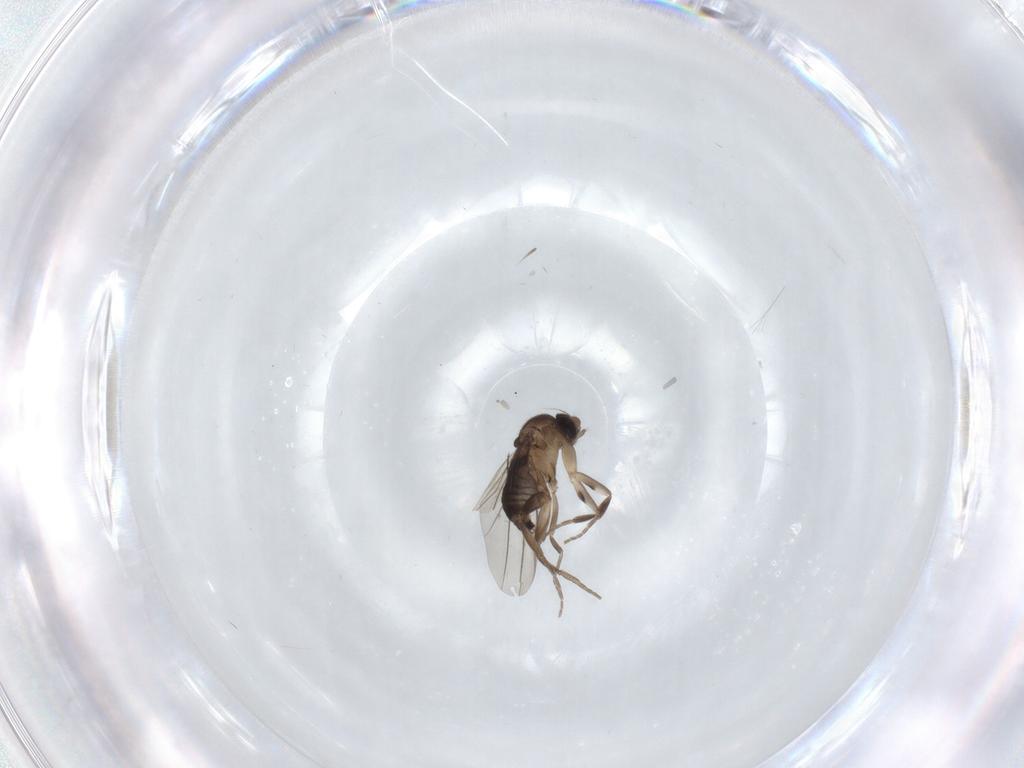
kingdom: Animalia
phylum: Arthropoda
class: Insecta
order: Diptera
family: Phoridae
